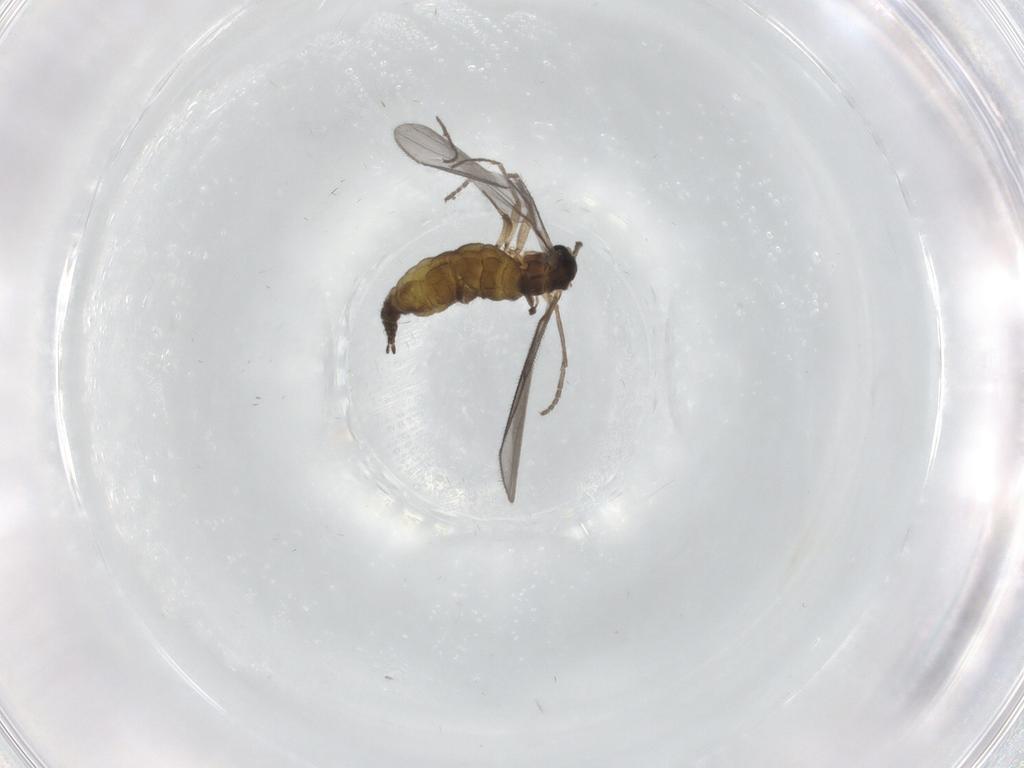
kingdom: Animalia
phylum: Arthropoda
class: Insecta
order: Diptera
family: Sciaridae
